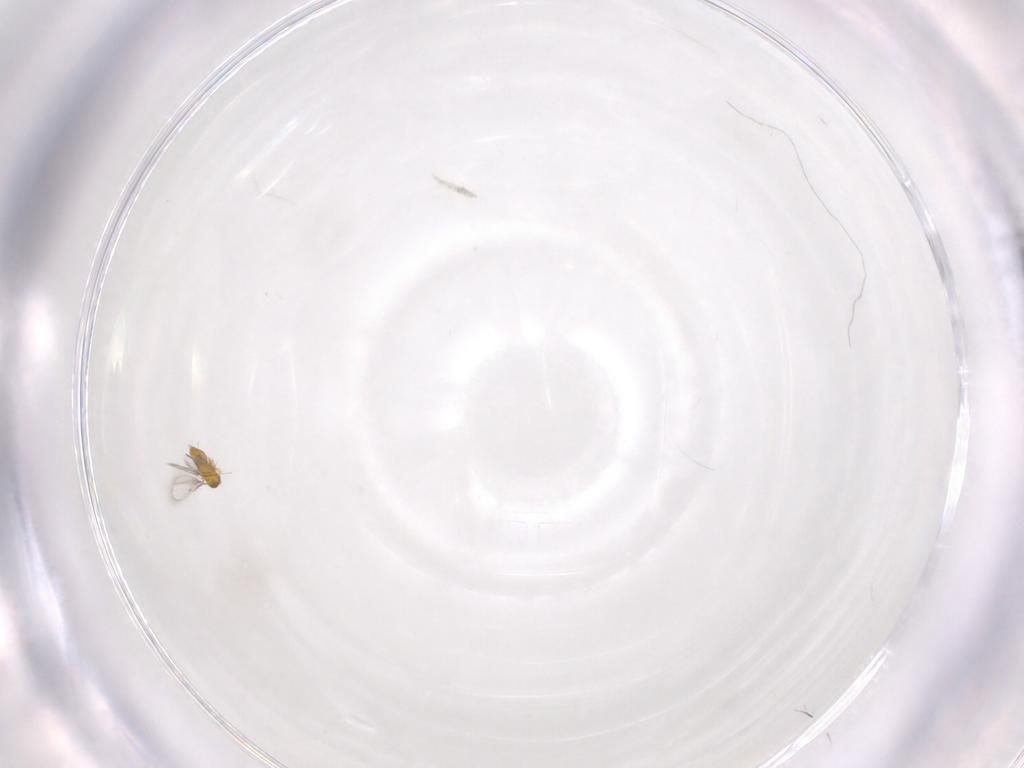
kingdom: Animalia
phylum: Arthropoda
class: Insecta
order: Hymenoptera
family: Trichogrammatidae
